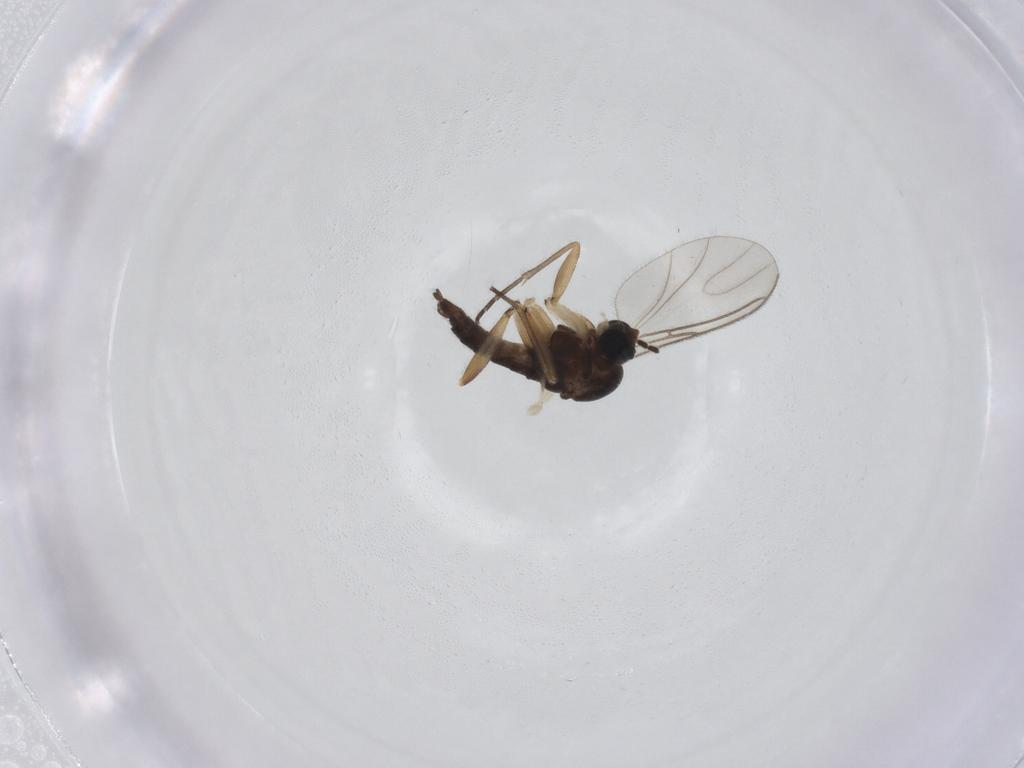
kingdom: Animalia
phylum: Arthropoda
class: Insecta
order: Diptera
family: Sciaridae
